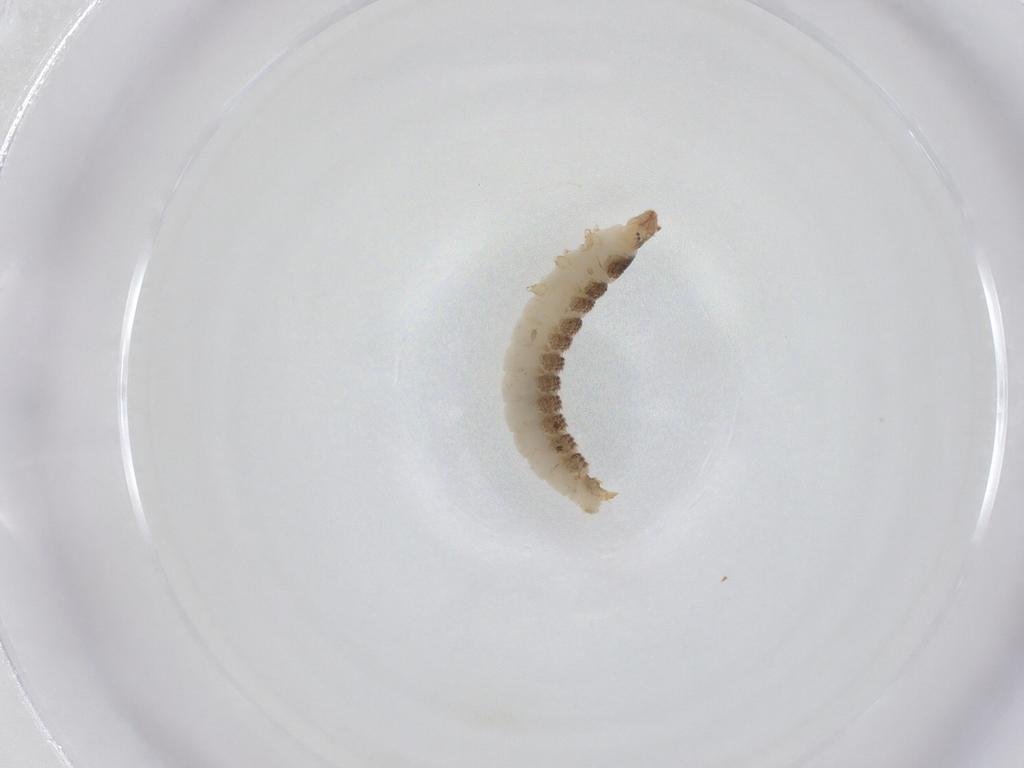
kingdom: Animalia
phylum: Arthropoda
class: Insecta
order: Coleoptera
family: Nitidulidae
